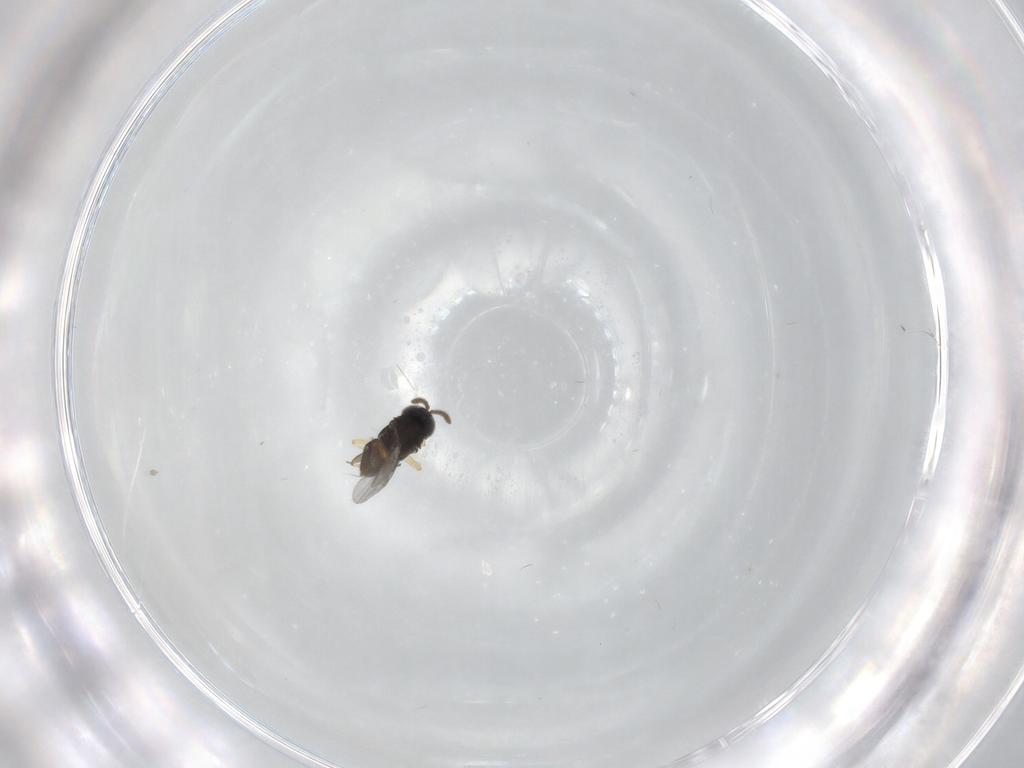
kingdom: Animalia
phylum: Arthropoda
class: Insecta
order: Hymenoptera
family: Encyrtidae
